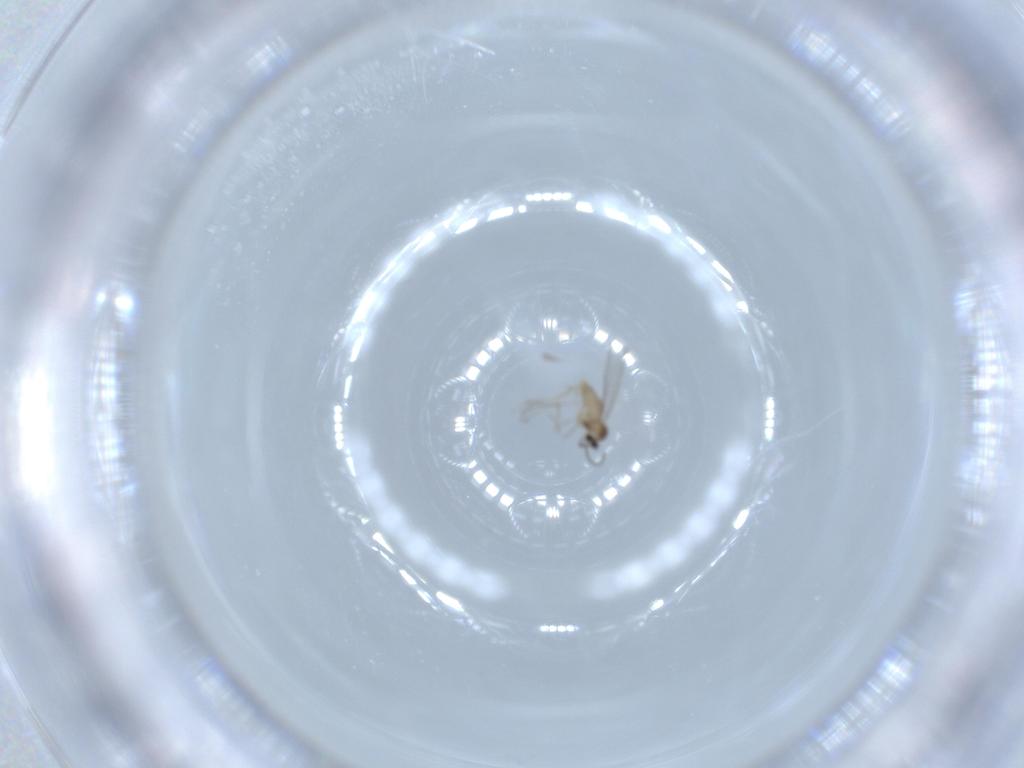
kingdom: Animalia
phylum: Arthropoda
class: Insecta
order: Diptera
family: Cecidomyiidae
